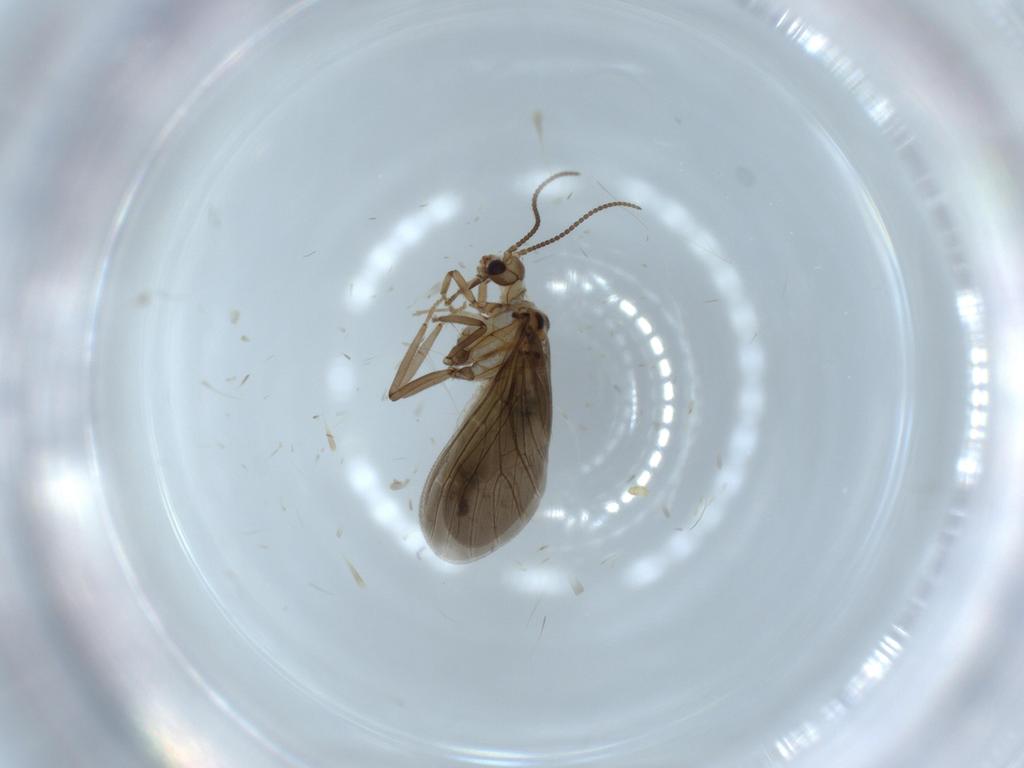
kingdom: Animalia
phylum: Arthropoda
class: Insecta
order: Neuroptera
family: Coniopterygidae
